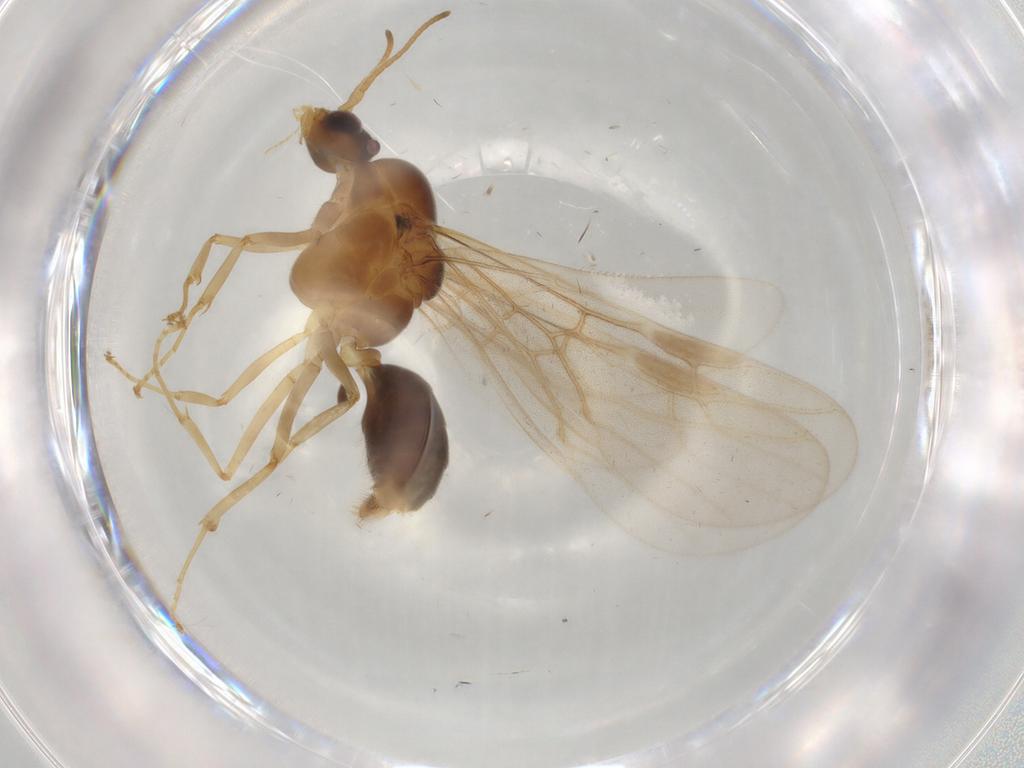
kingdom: Animalia
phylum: Arthropoda
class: Insecta
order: Hymenoptera
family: Formicidae
